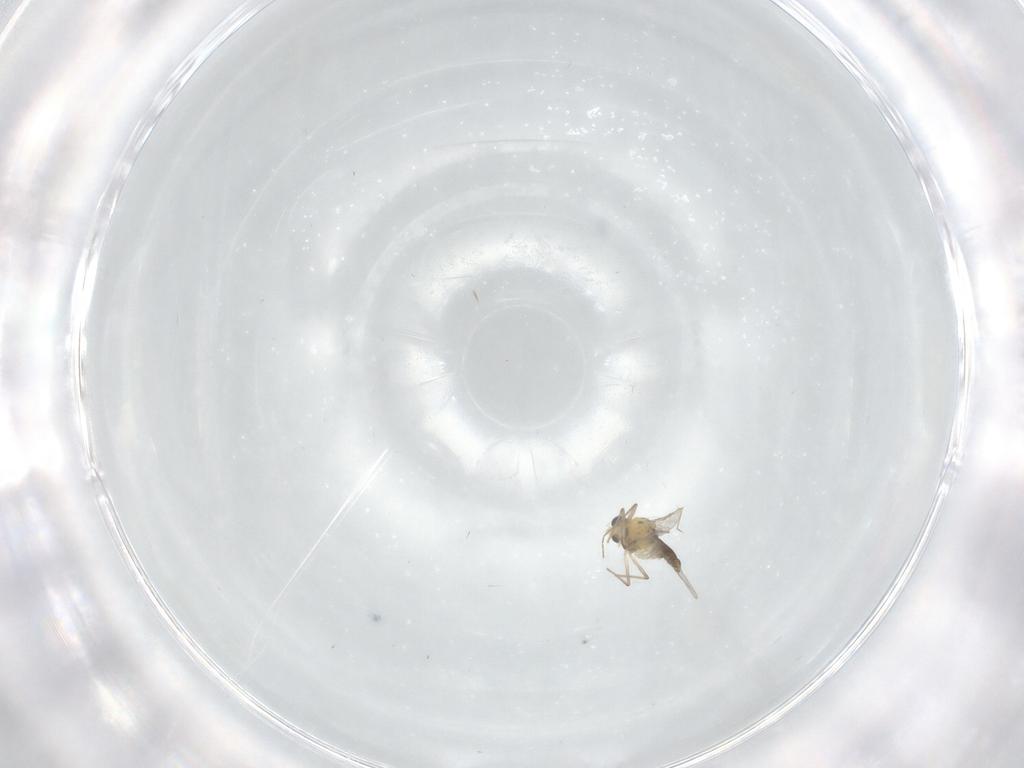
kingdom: Animalia
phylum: Arthropoda
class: Insecta
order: Diptera
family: Chironomidae
